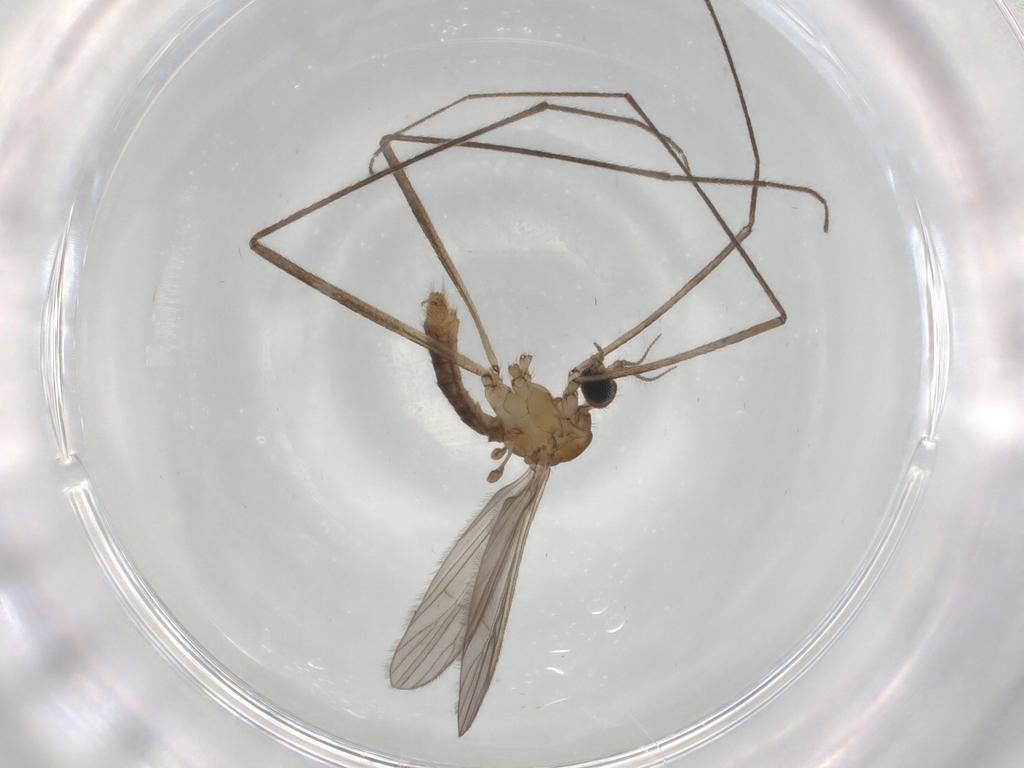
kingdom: Animalia
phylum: Arthropoda
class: Insecta
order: Diptera
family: Limoniidae
